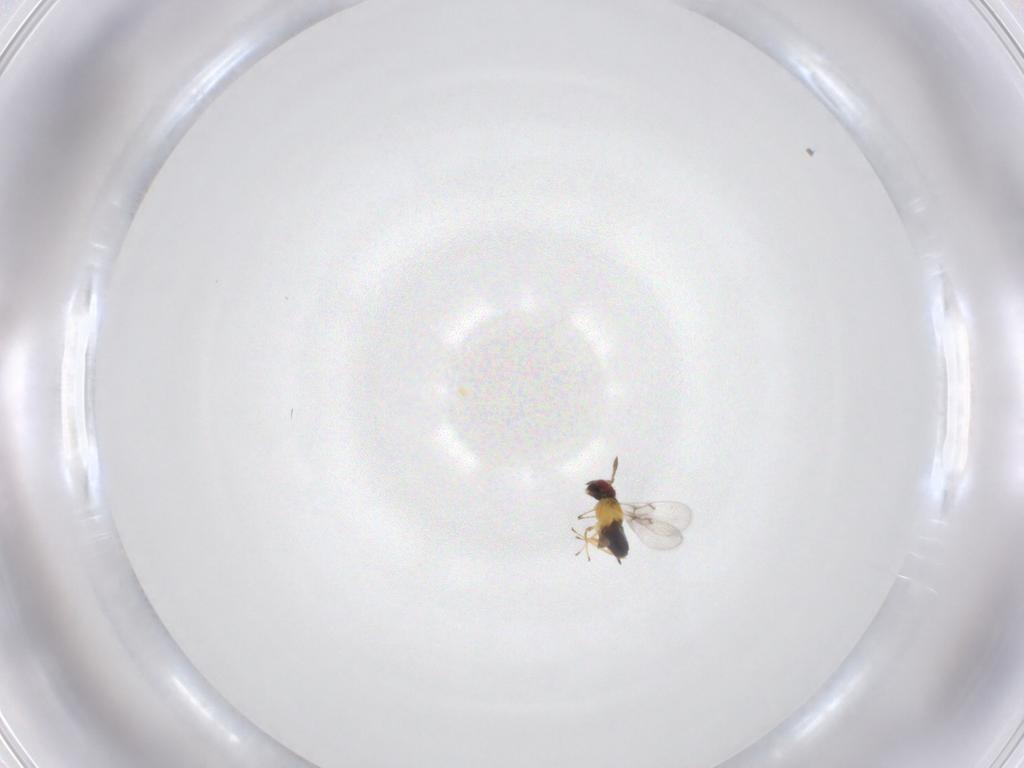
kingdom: Animalia
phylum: Arthropoda
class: Insecta
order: Hymenoptera
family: Trichogrammatidae
